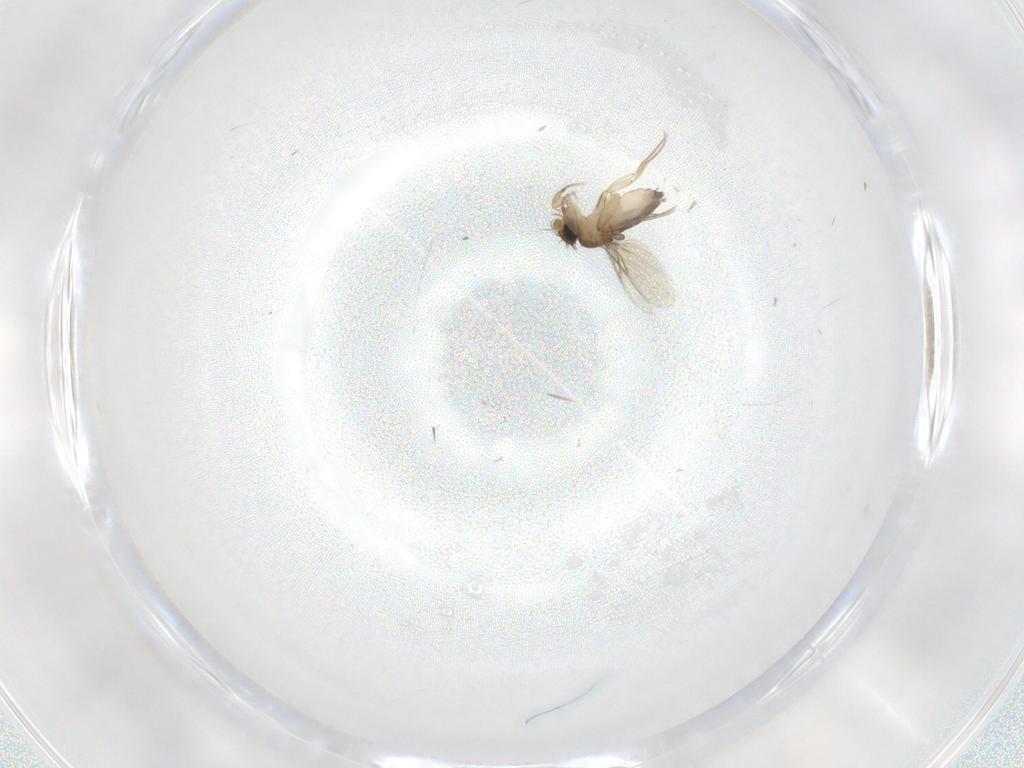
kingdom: Animalia
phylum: Arthropoda
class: Insecta
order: Diptera
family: Phoridae
